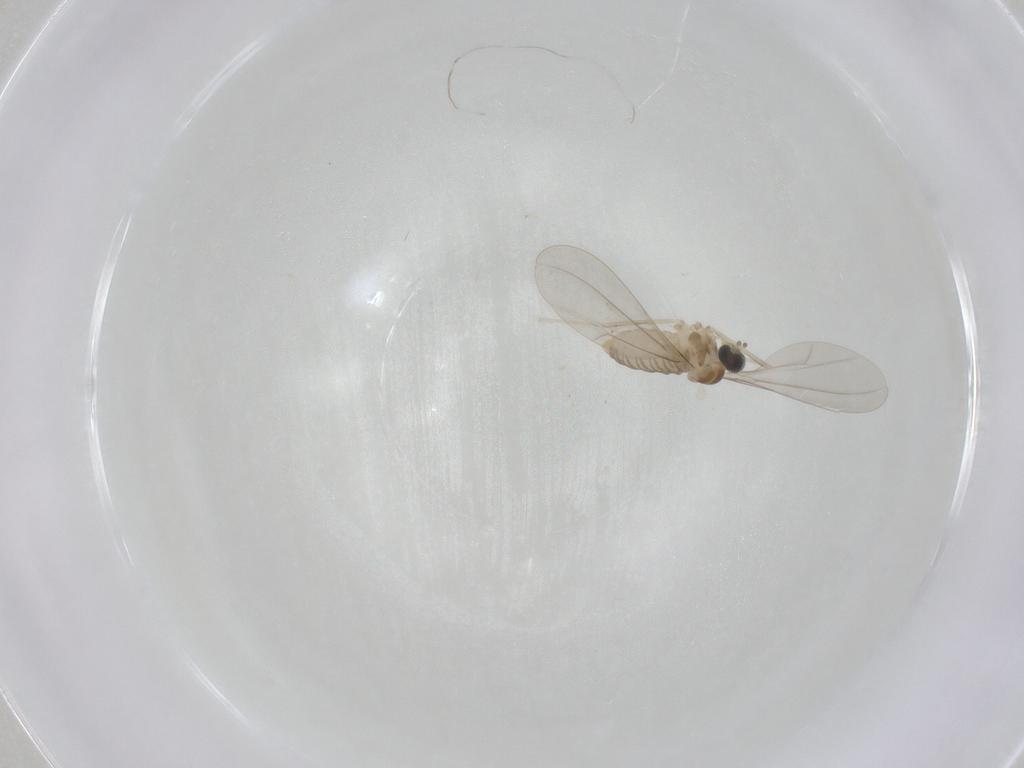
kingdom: Animalia
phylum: Arthropoda
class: Insecta
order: Diptera
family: Cecidomyiidae
